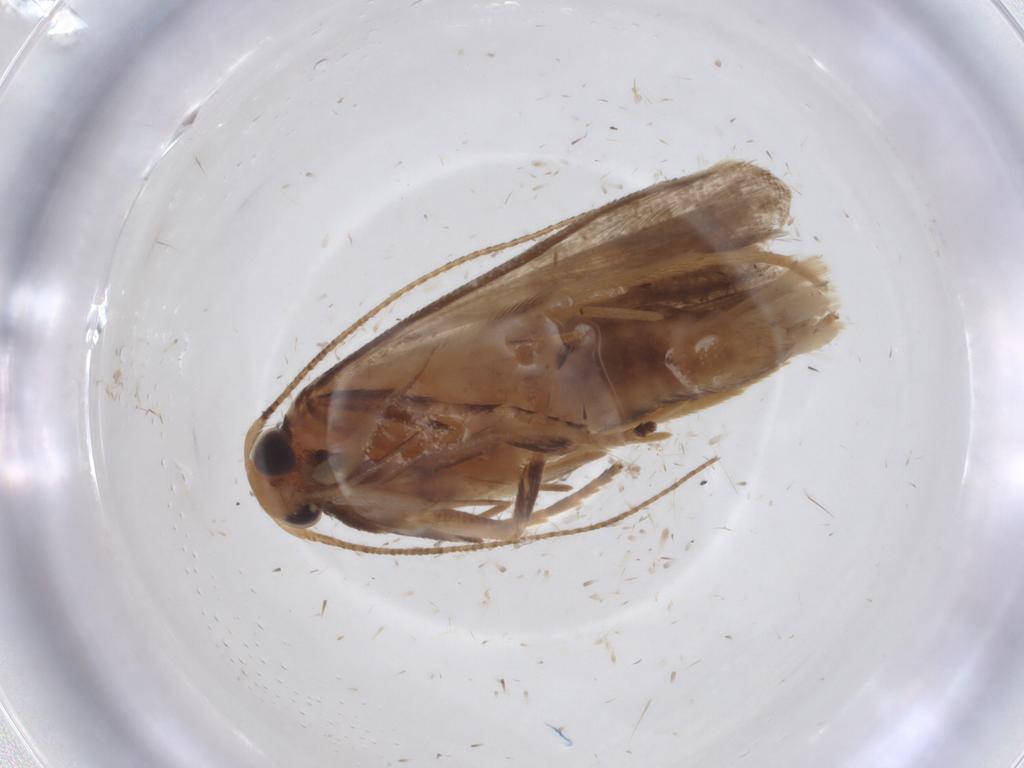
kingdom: Animalia
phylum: Arthropoda
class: Insecta
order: Lepidoptera
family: Gelechiidae
